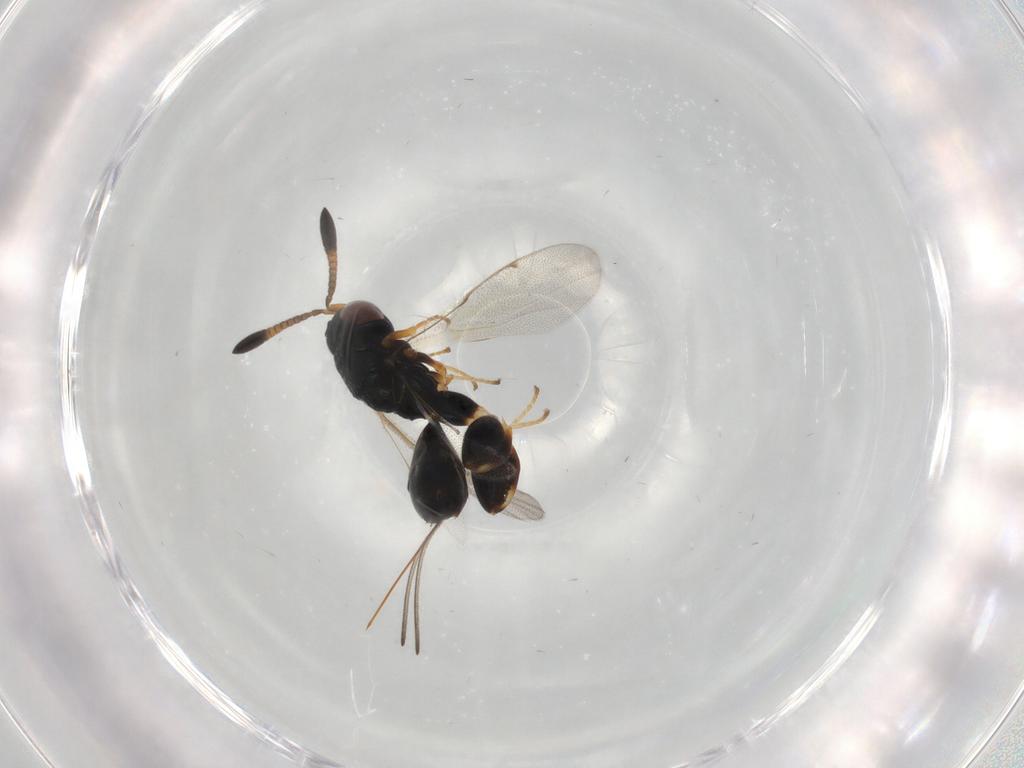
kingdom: Animalia
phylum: Arthropoda
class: Insecta
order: Hymenoptera
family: Torymidae
